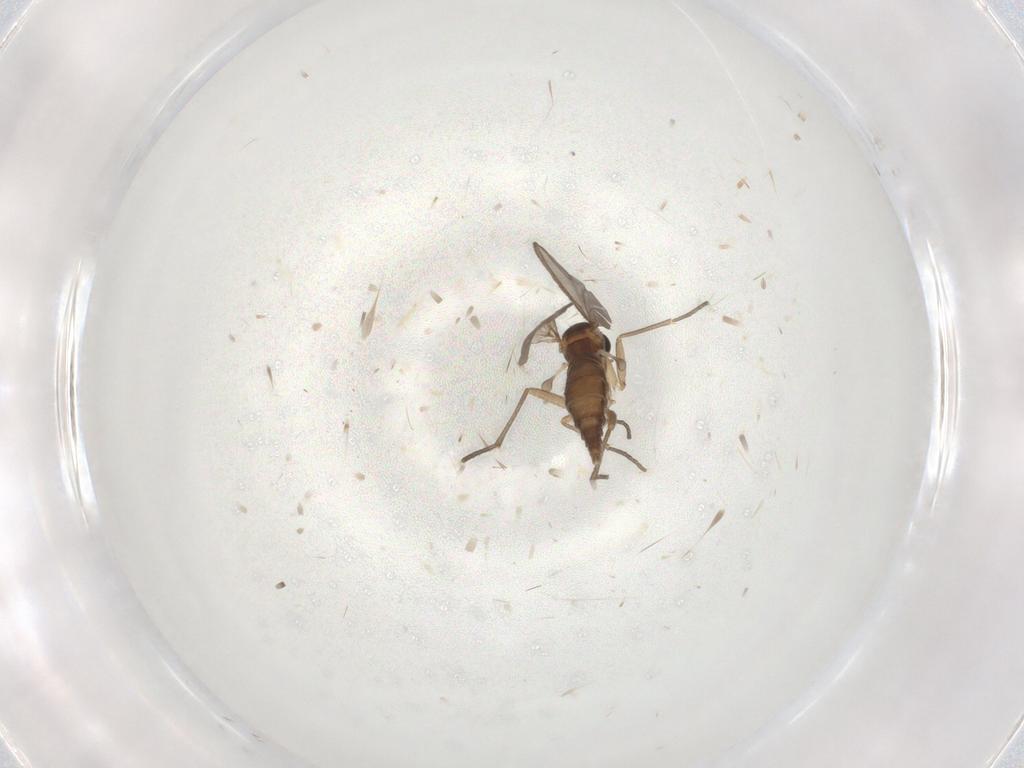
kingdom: Animalia
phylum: Arthropoda
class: Insecta
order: Diptera
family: Sciaridae
